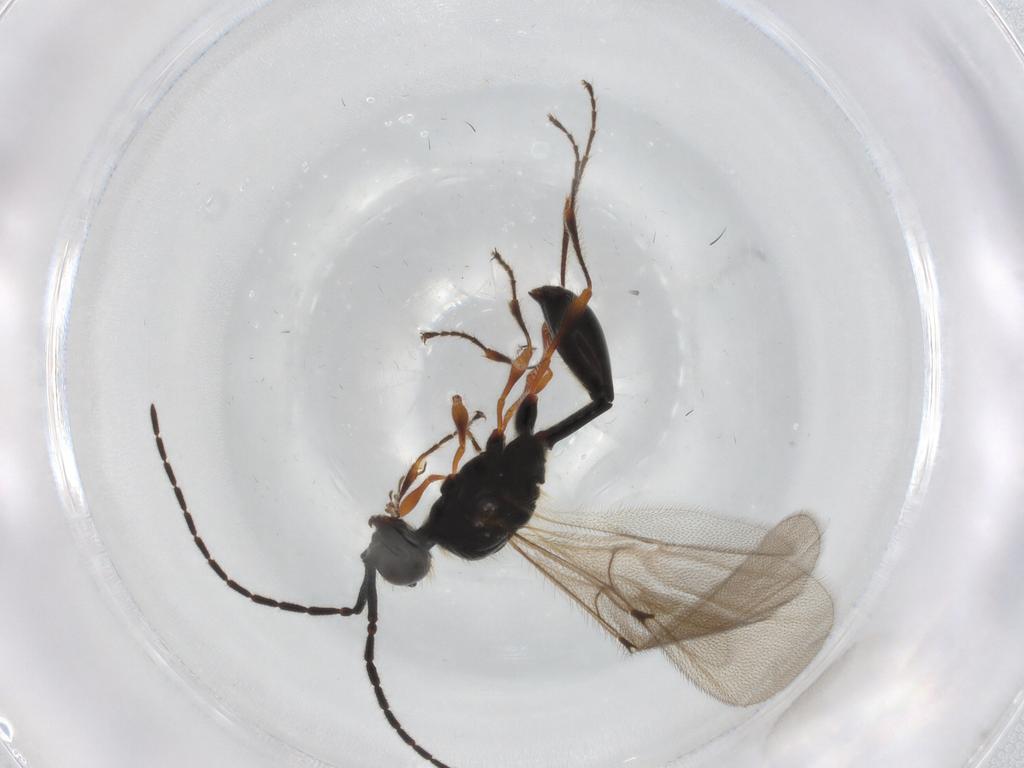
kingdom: Animalia
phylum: Arthropoda
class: Insecta
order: Hymenoptera
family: Diapriidae
